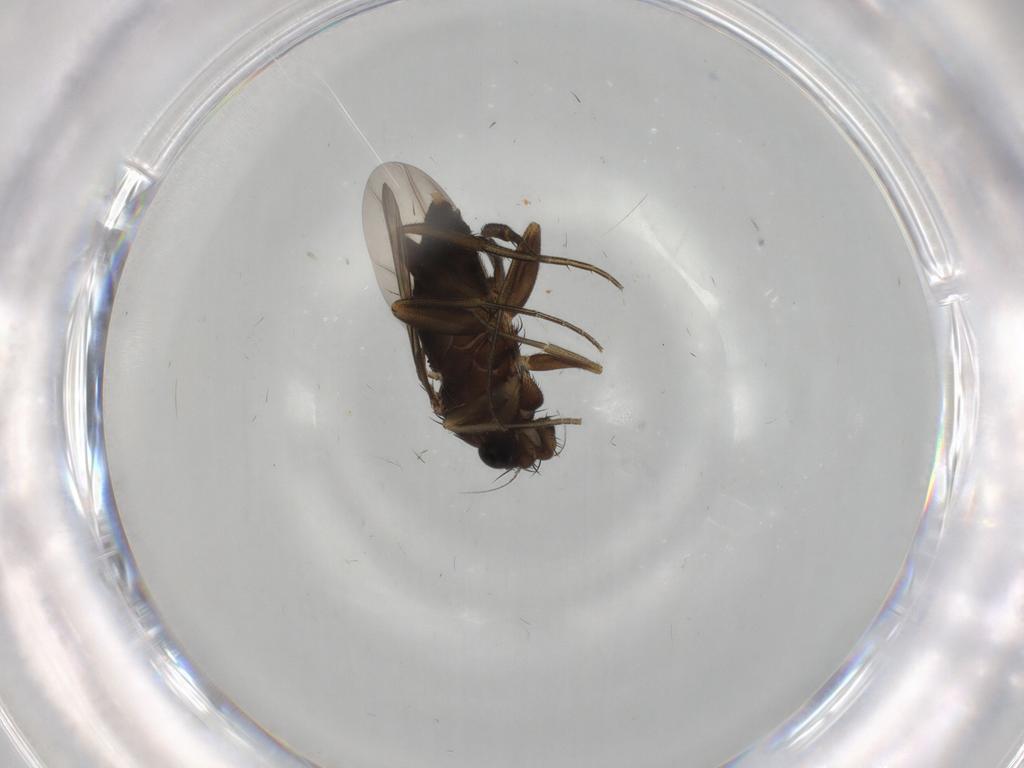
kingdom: Animalia
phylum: Arthropoda
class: Insecta
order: Diptera
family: Phoridae
